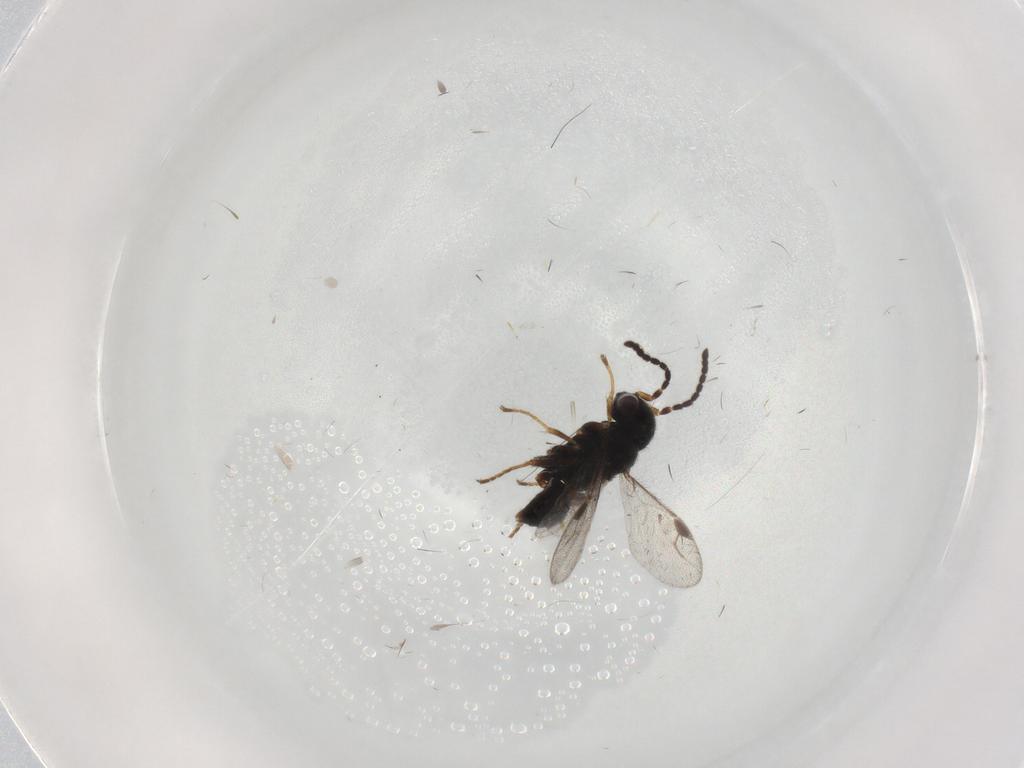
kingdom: Animalia
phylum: Arthropoda
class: Insecta
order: Hymenoptera
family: Dryinidae
